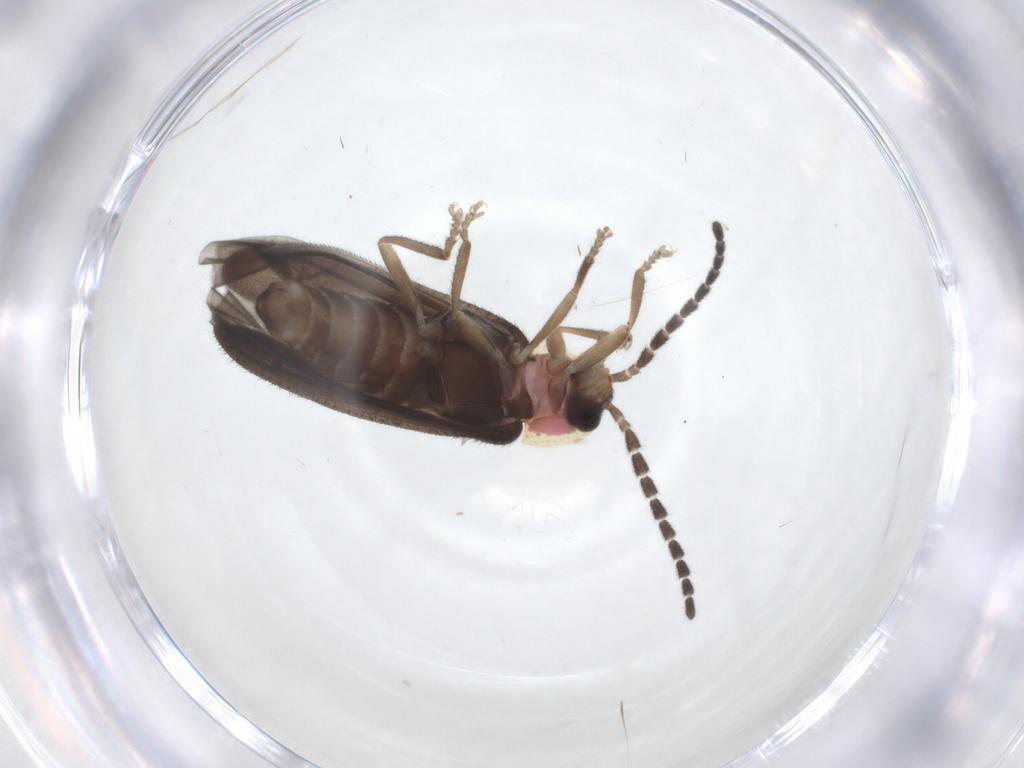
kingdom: Animalia
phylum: Arthropoda
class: Insecta
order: Coleoptera
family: Lampyridae
